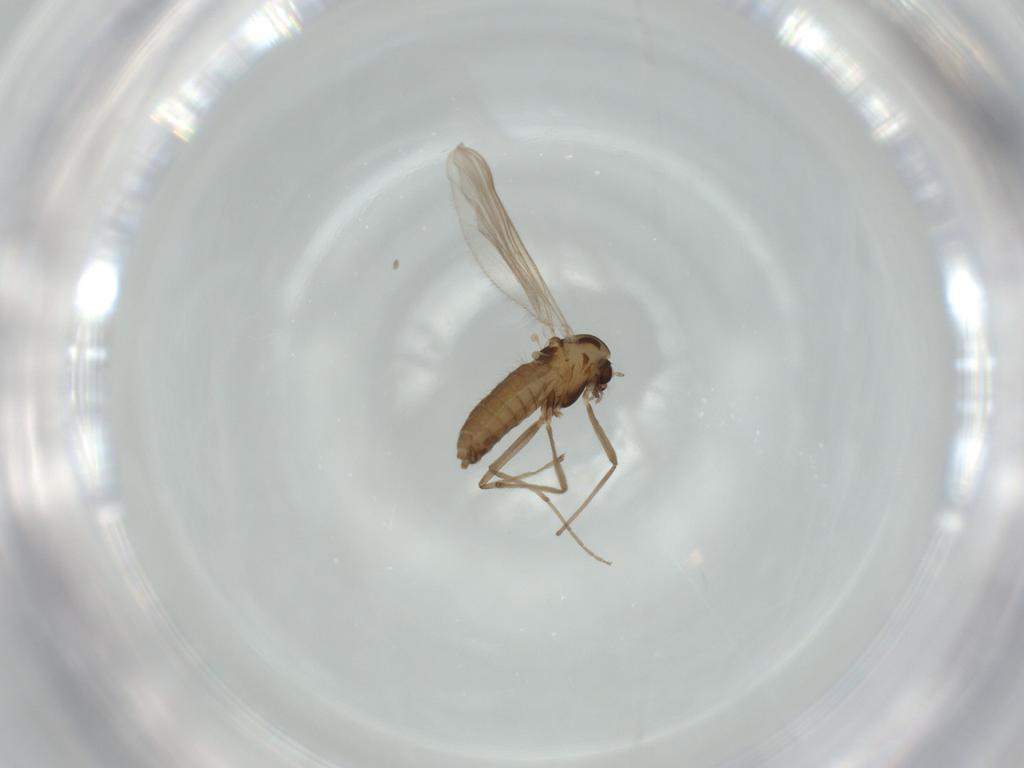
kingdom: Animalia
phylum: Arthropoda
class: Insecta
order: Diptera
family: Chironomidae
